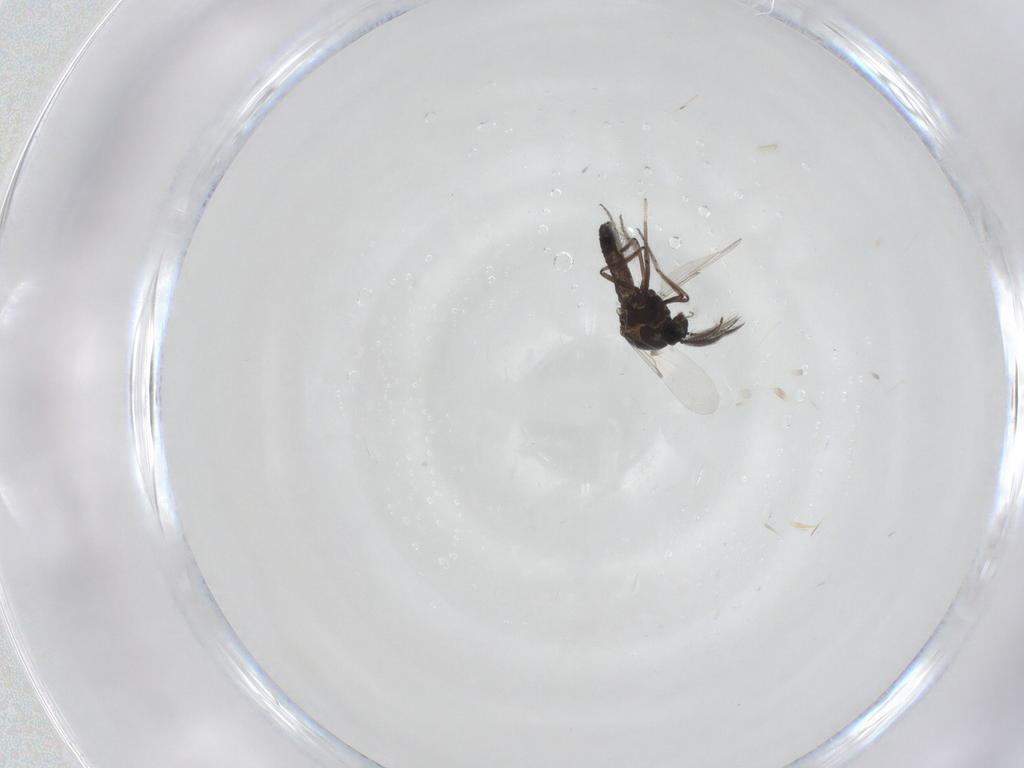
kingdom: Animalia
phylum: Arthropoda
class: Insecta
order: Diptera
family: Ceratopogonidae
